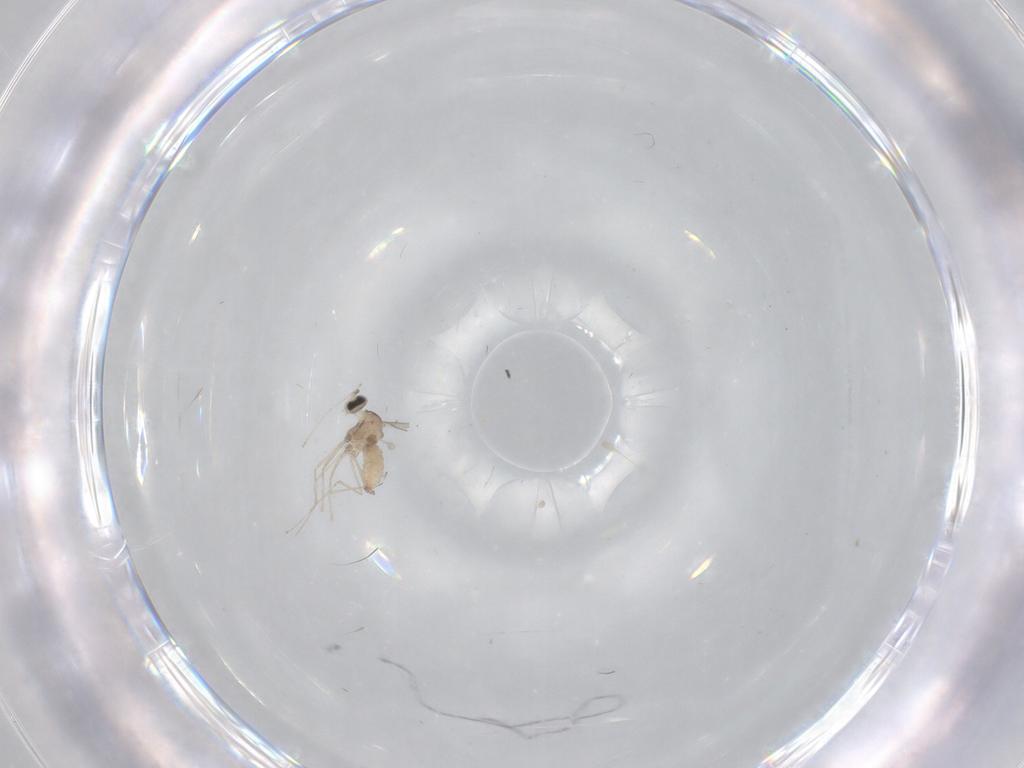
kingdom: Animalia
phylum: Arthropoda
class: Insecta
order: Diptera
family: Cecidomyiidae
